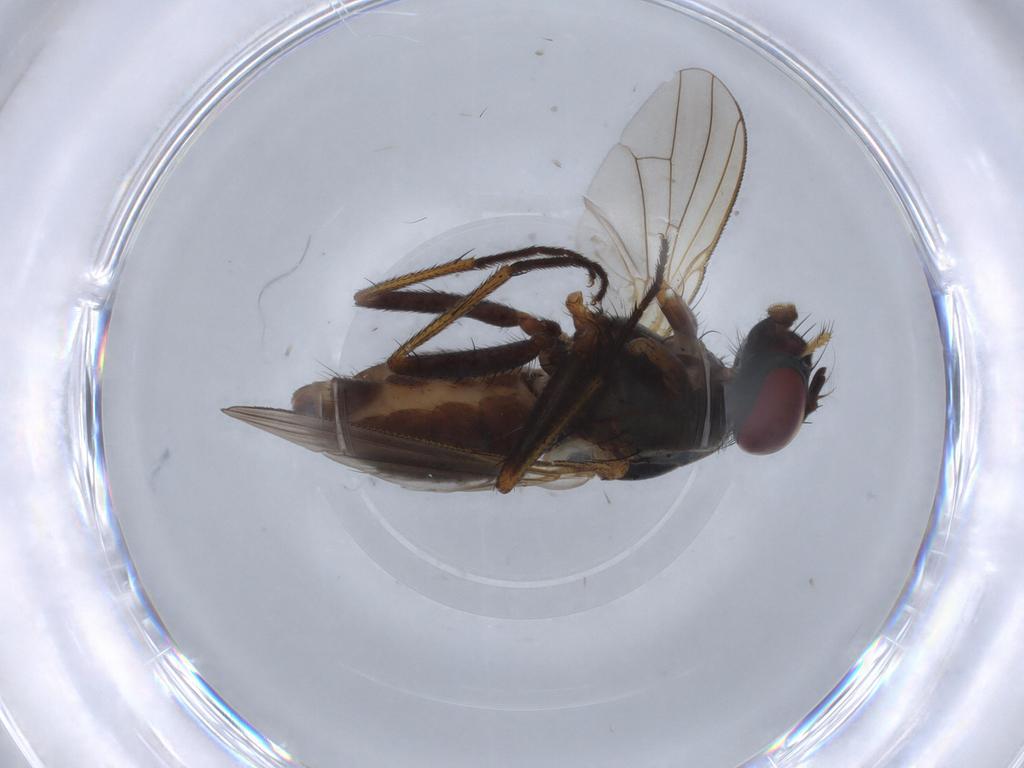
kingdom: Animalia
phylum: Arthropoda
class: Insecta
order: Diptera
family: Muscidae
